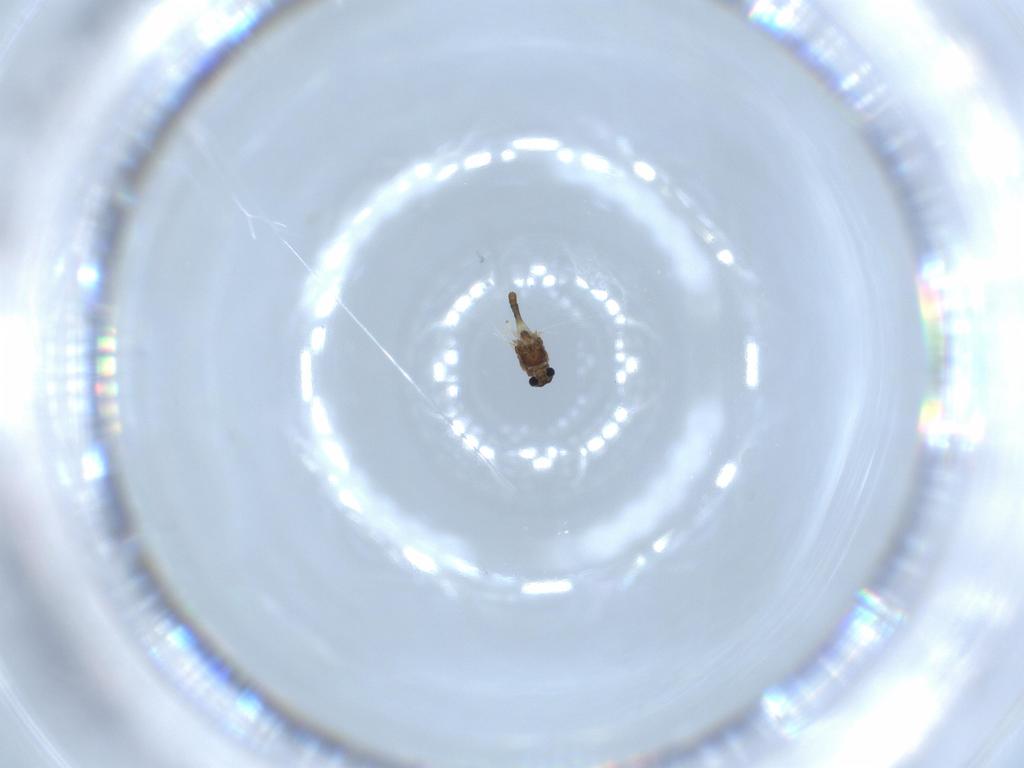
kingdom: Animalia
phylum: Arthropoda
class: Insecta
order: Diptera
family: Chironomidae
